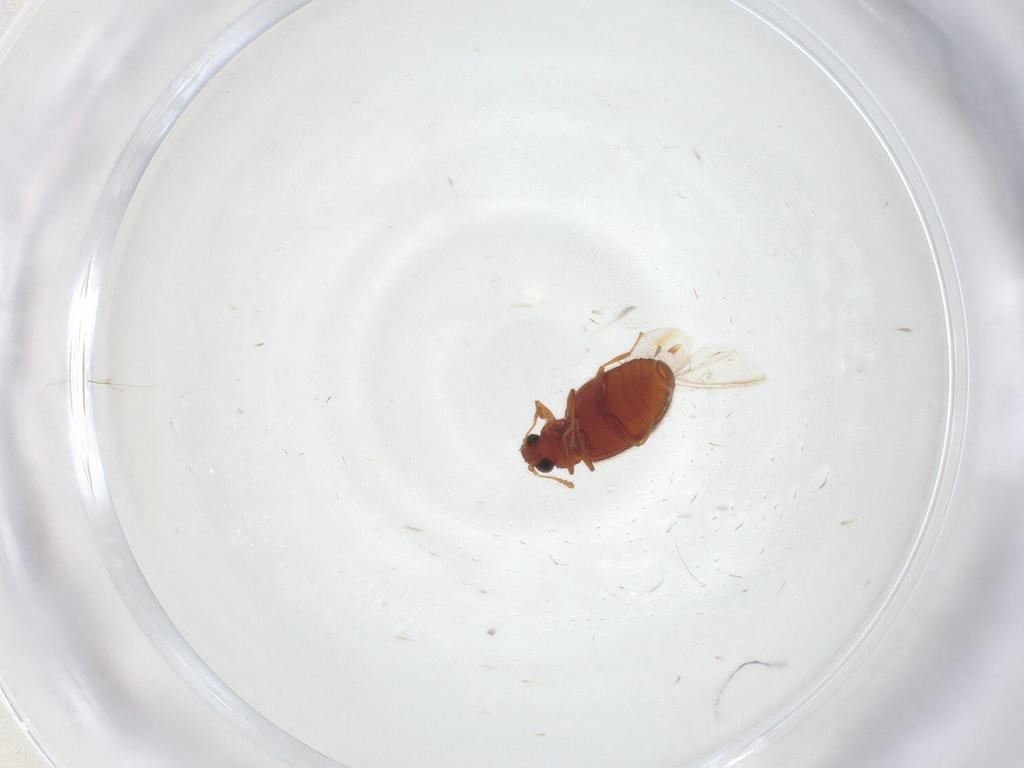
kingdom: Animalia
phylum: Arthropoda
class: Insecta
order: Coleoptera
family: Latridiidae
